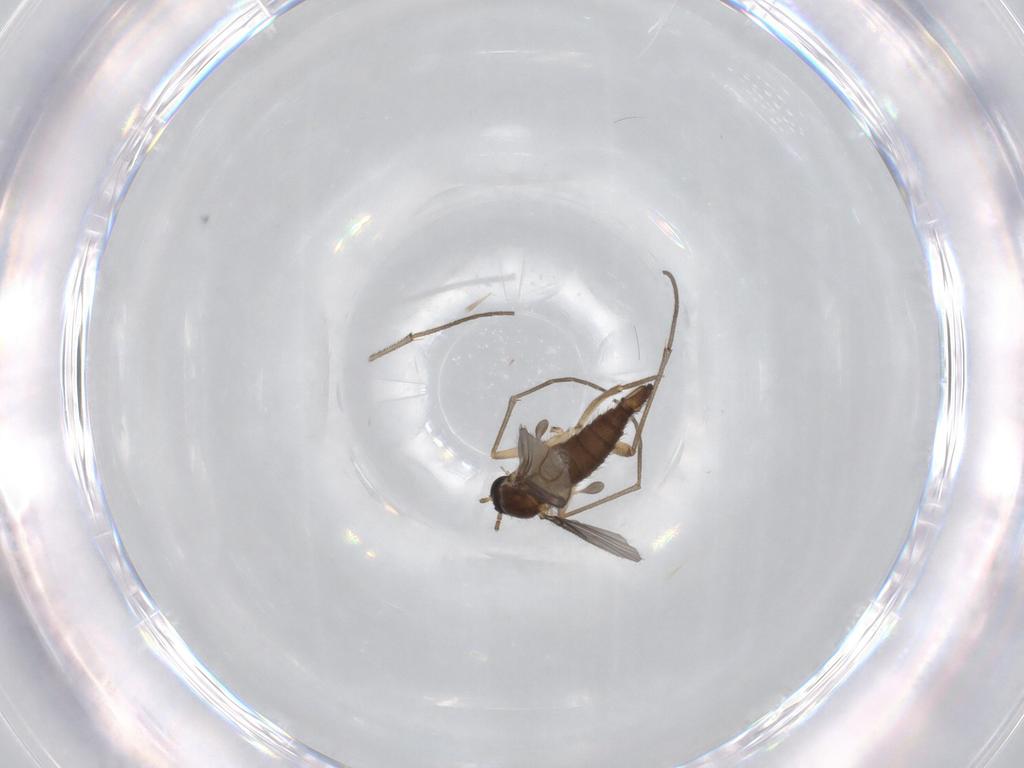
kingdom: Animalia
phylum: Arthropoda
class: Insecta
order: Diptera
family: Sciaridae
